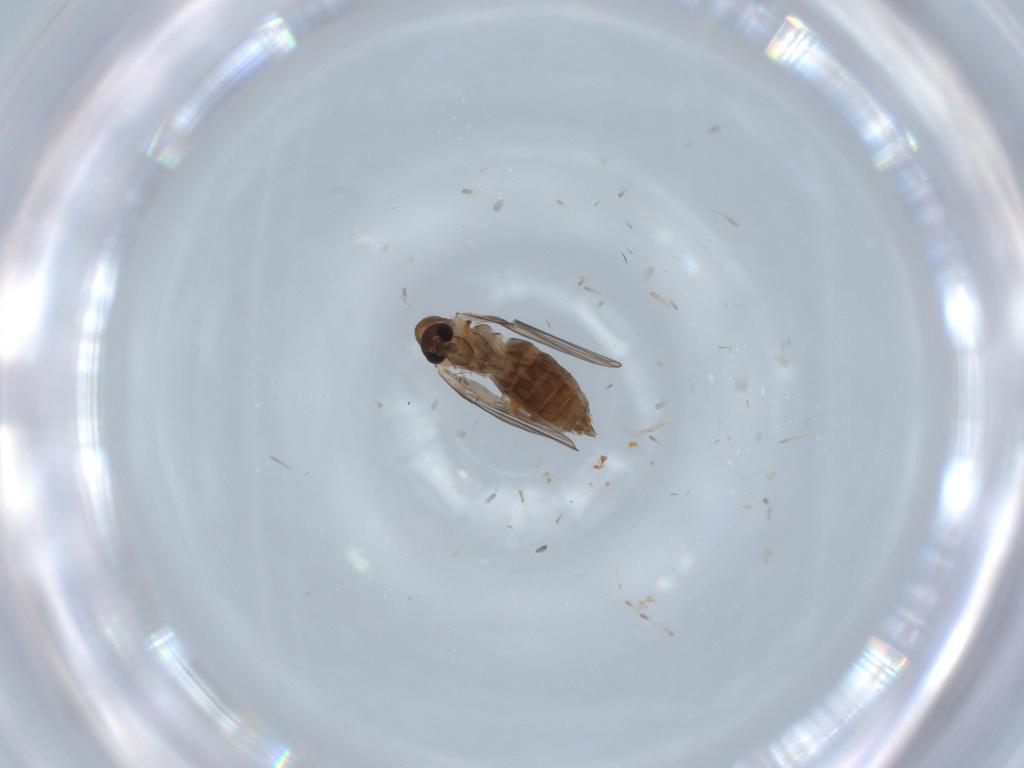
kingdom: Animalia
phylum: Arthropoda
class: Insecta
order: Diptera
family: Psychodidae
